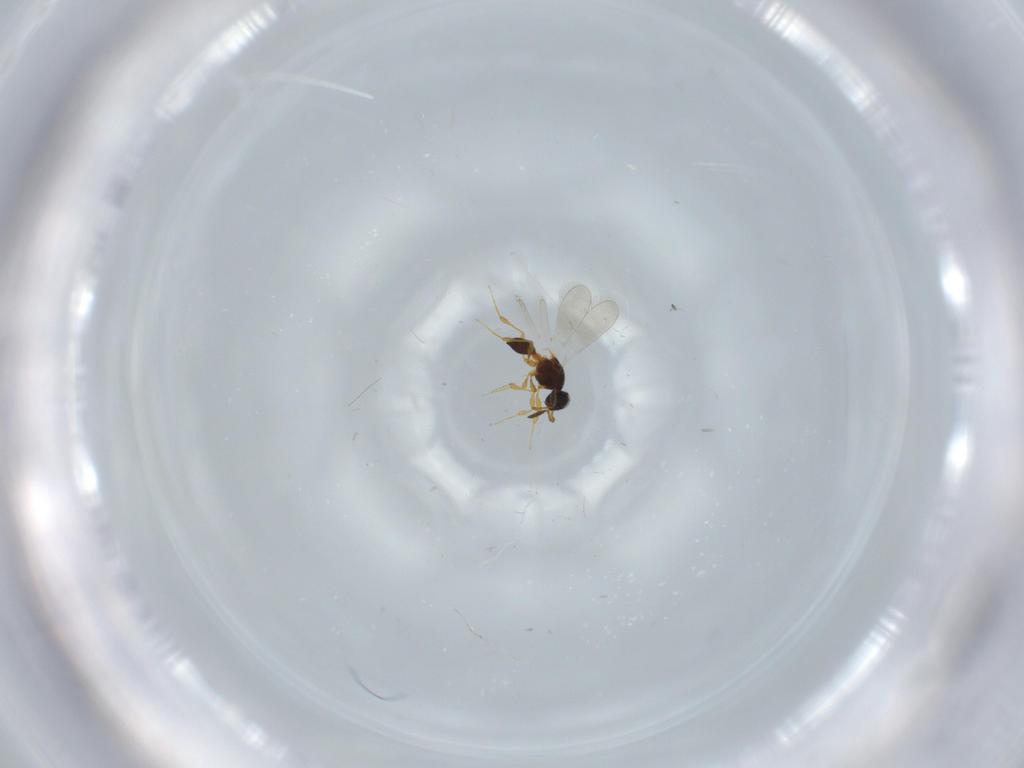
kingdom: Animalia
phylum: Arthropoda
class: Insecta
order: Hymenoptera
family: Platygastridae
